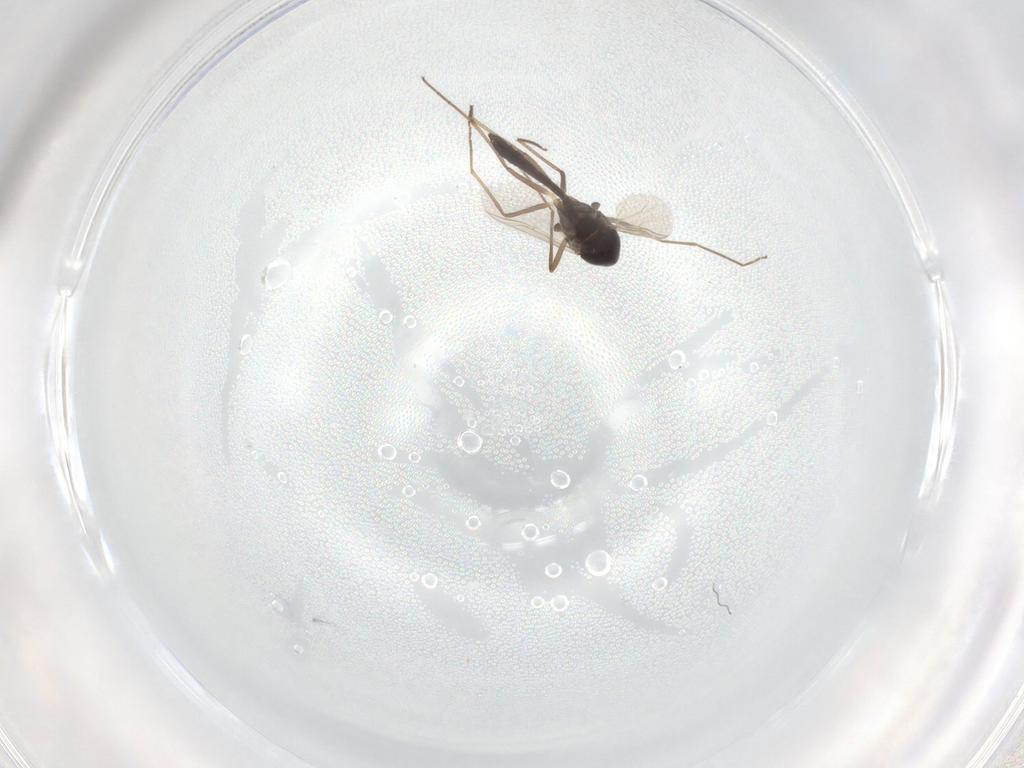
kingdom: Animalia
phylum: Arthropoda
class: Insecta
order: Diptera
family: Chironomidae
